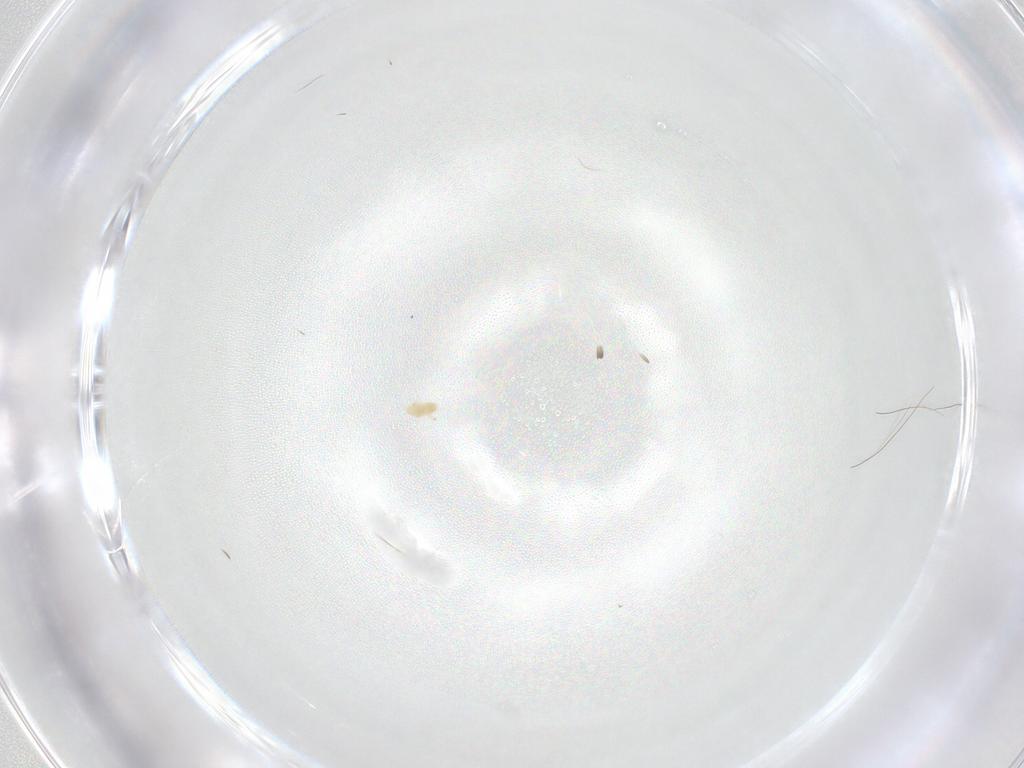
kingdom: Animalia
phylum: Arthropoda
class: Arachnida
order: Trombidiformes
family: Eupodidae
